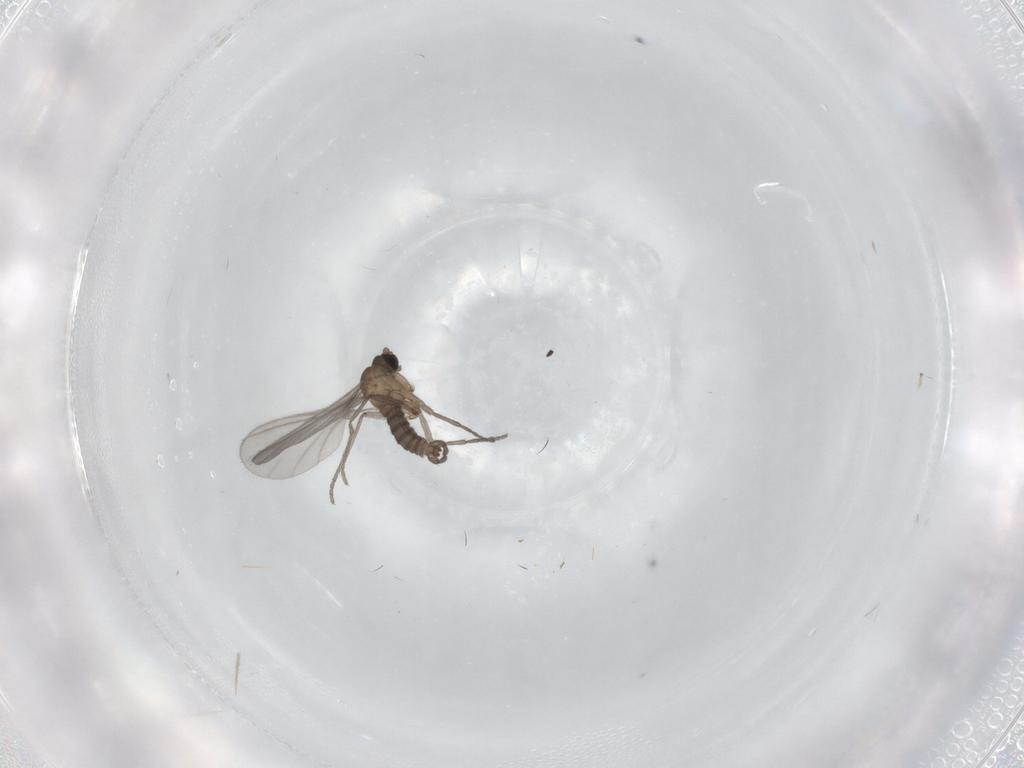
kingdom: Animalia
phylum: Arthropoda
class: Insecta
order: Diptera
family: Sciaridae
